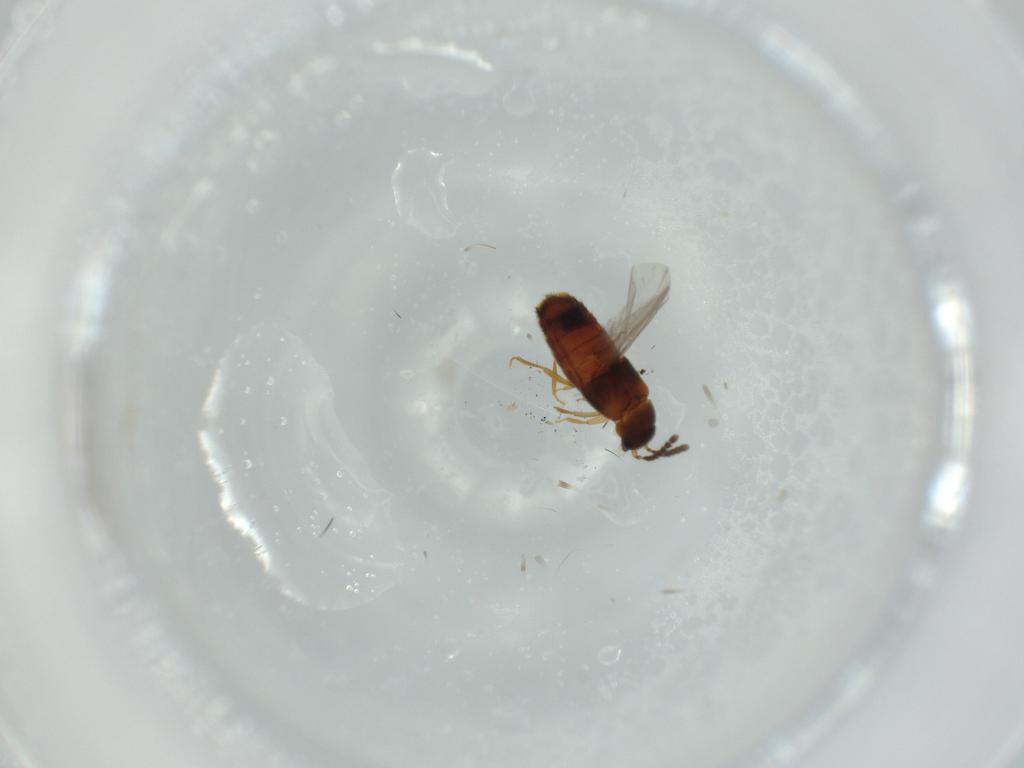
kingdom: Animalia
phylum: Arthropoda
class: Insecta
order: Coleoptera
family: Staphylinidae
